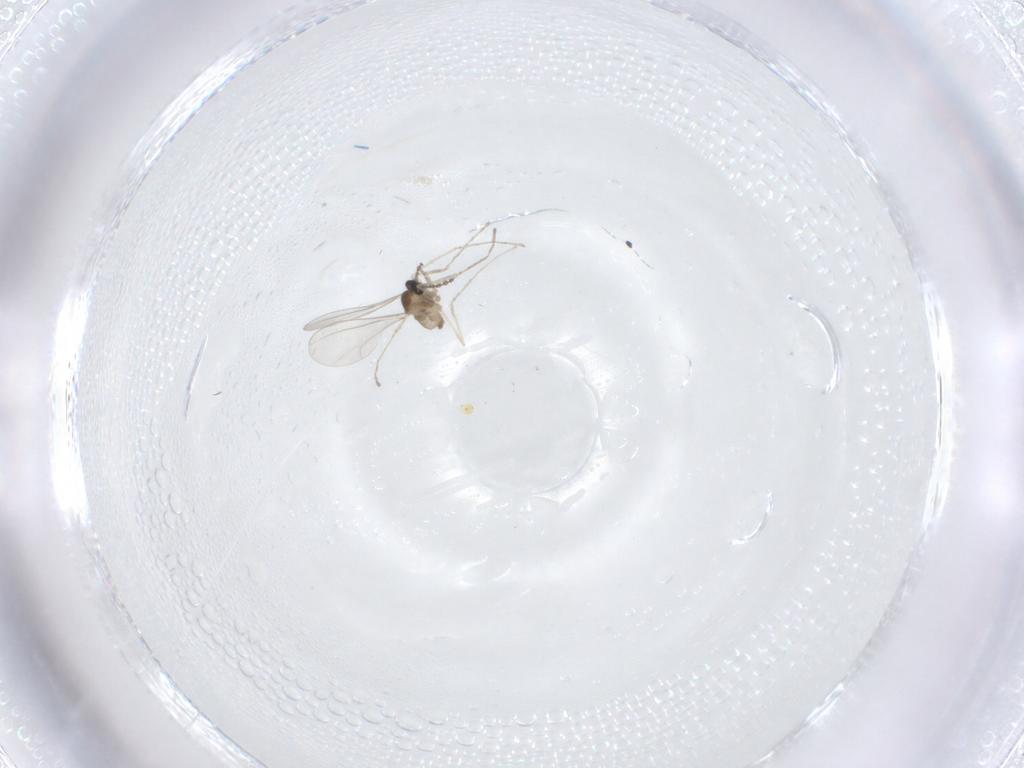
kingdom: Animalia
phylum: Arthropoda
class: Insecta
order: Diptera
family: Cecidomyiidae
